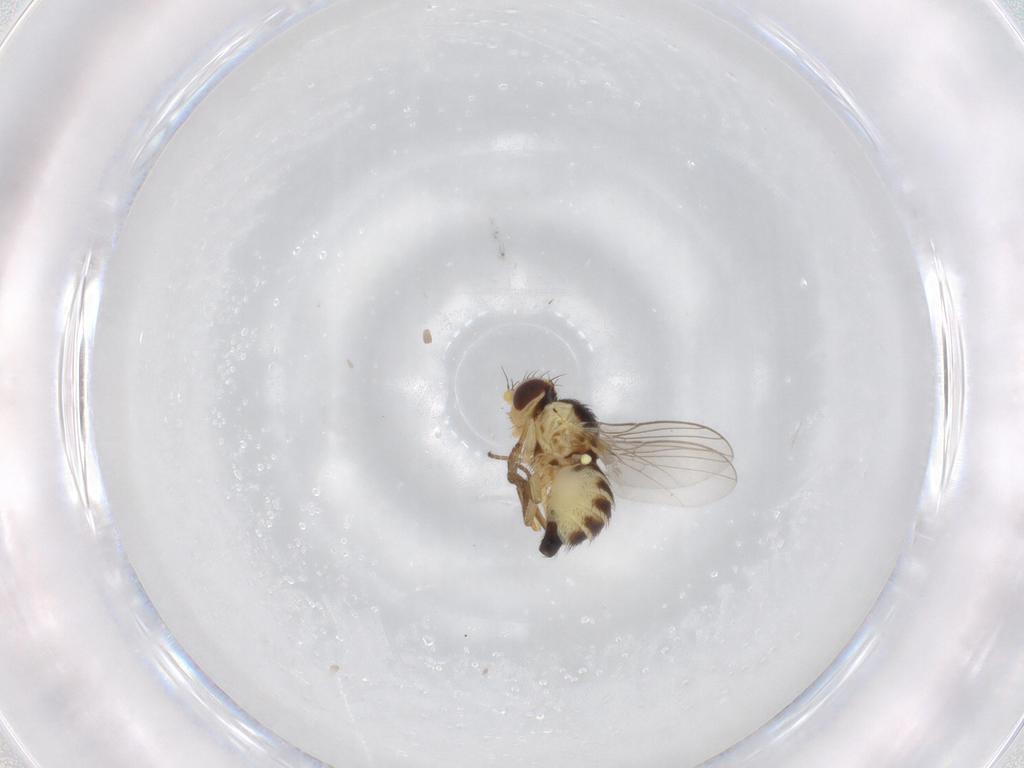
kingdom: Animalia
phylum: Arthropoda
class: Insecta
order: Diptera
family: Agromyzidae
